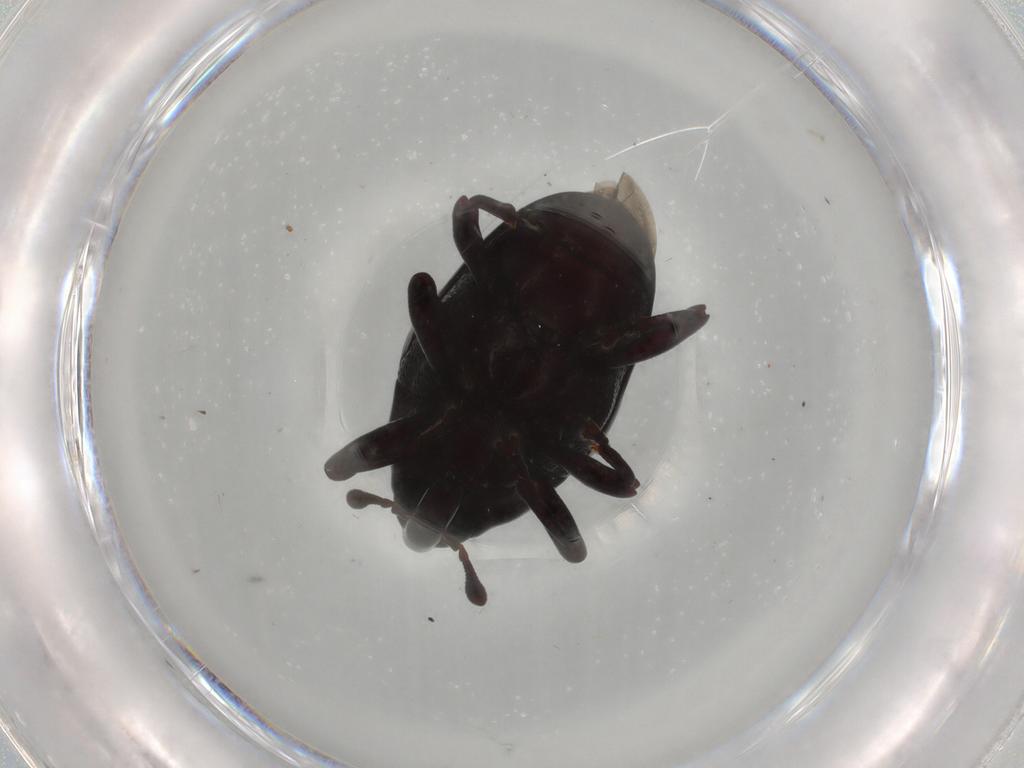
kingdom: Animalia
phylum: Arthropoda
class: Insecta
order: Coleoptera
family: Curculionidae
